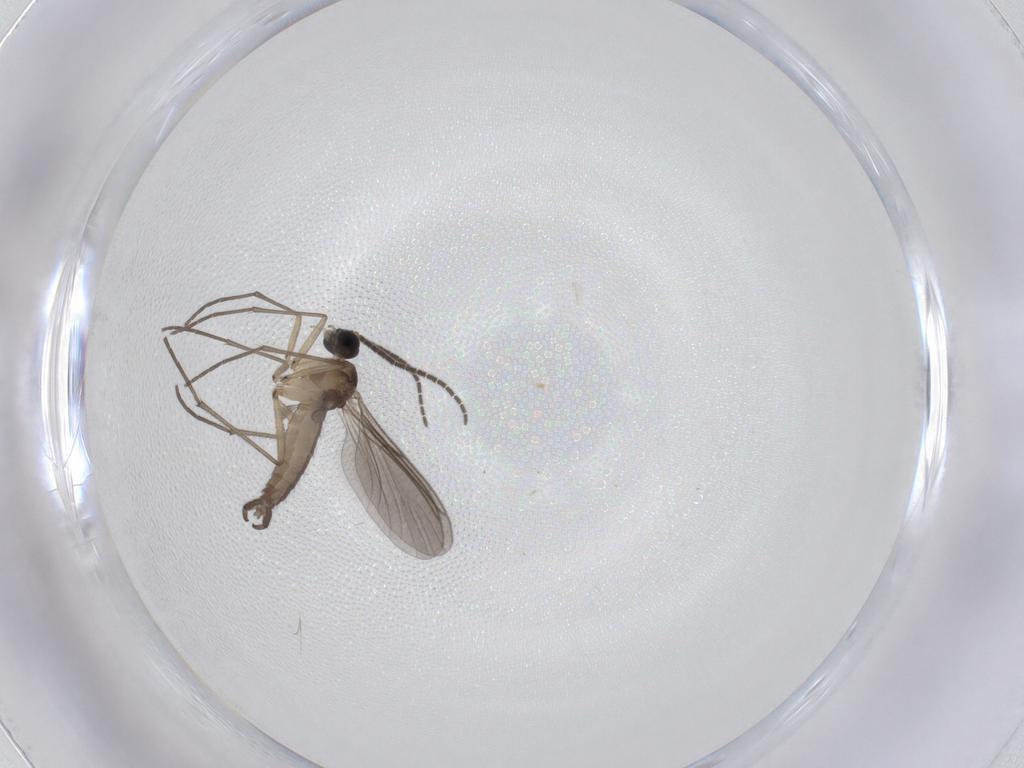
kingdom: Animalia
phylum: Arthropoda
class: Insecta
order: Diptera
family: Sciaridae
